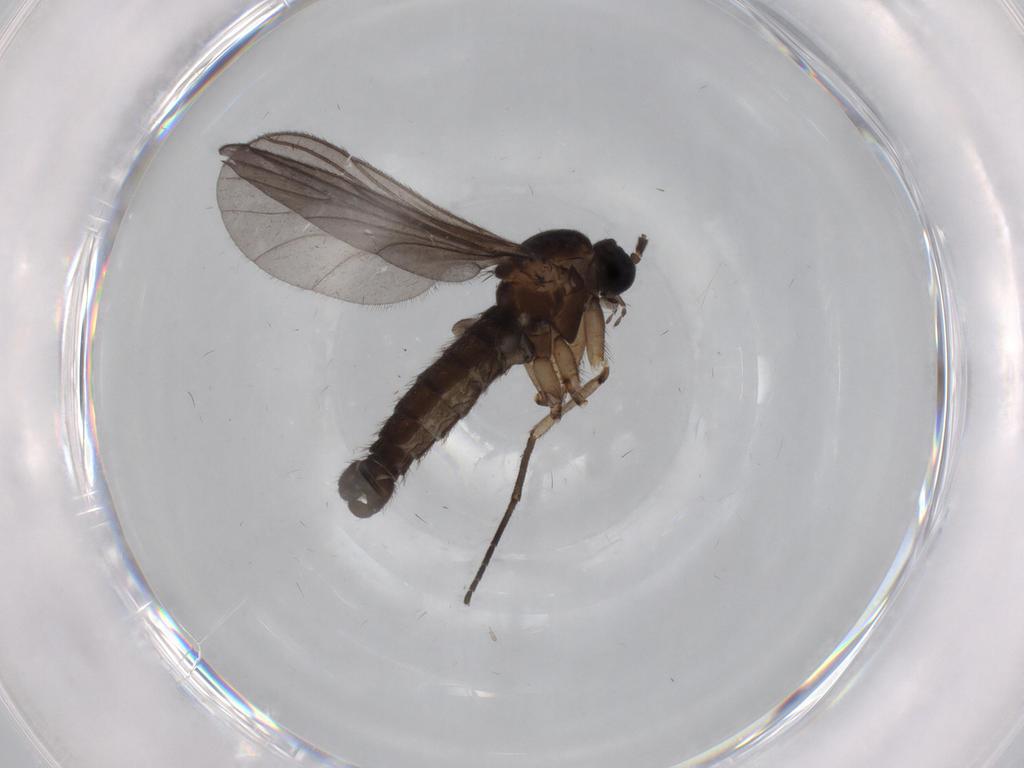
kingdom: Animalia
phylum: Arthropoda
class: Insecta
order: Diptera
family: Sciaridae
